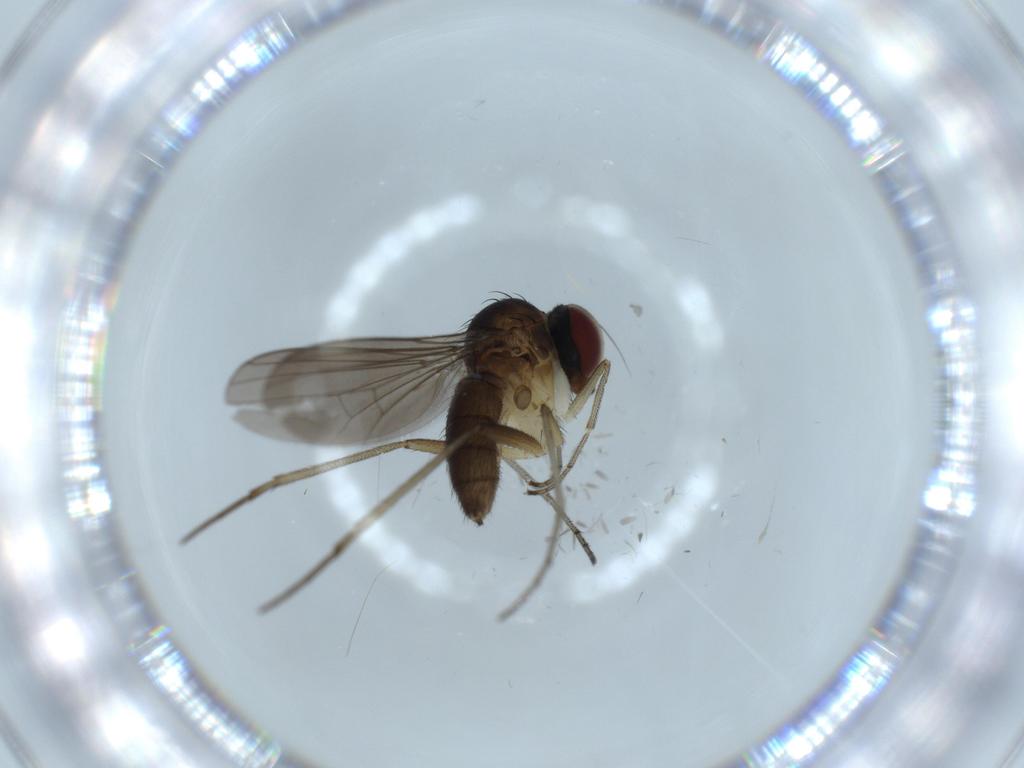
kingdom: Animalia
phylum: Arthropoda
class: Insecta
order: Diptera
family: Dolichopodidae
